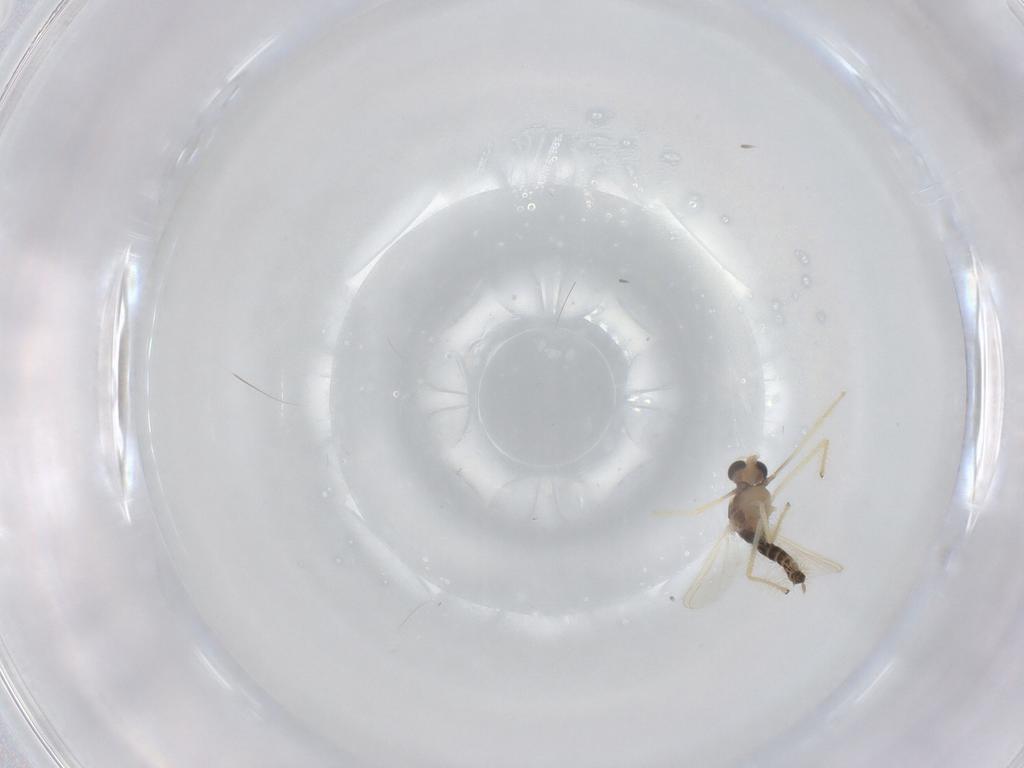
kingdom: Animalia
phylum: Arthropoda
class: Insecta
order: Diptera
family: Chironomidae
